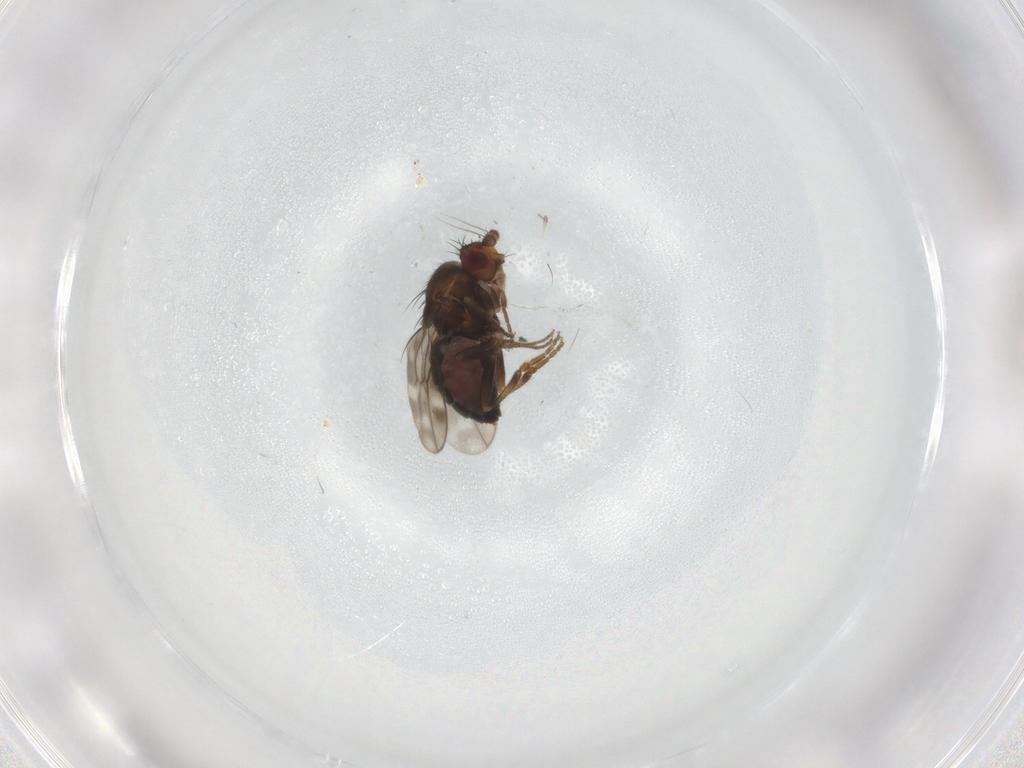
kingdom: Animalia
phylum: Arthropoda
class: Insecta
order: Diptera
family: Sphaeroceridae
